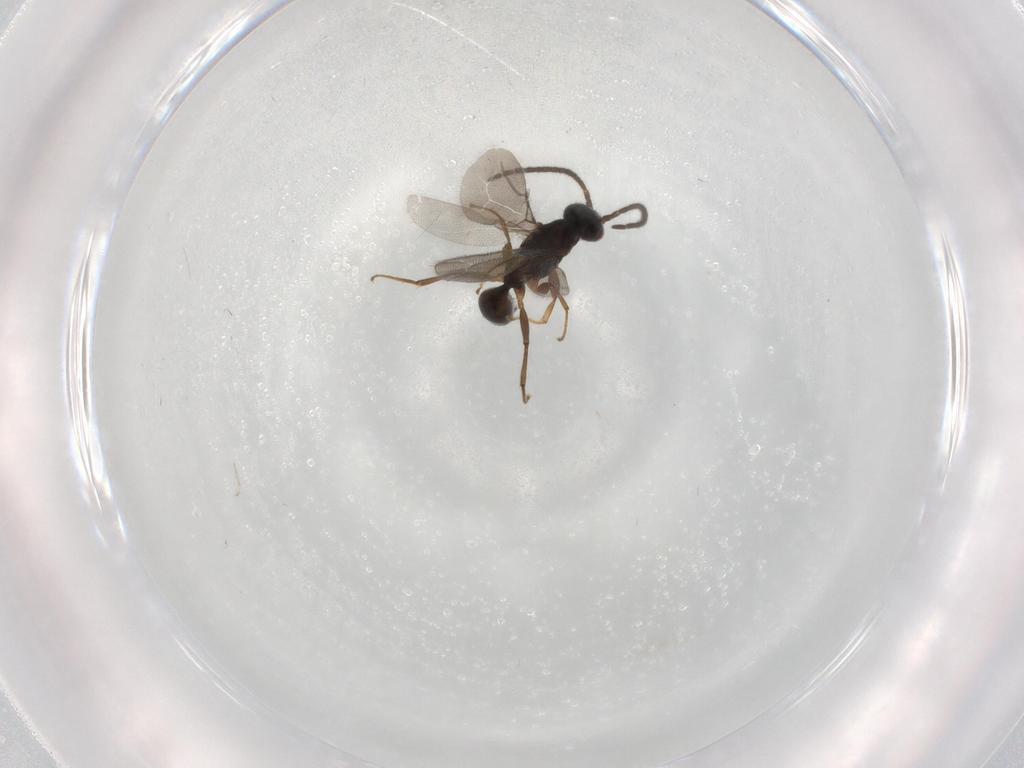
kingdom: Animalia
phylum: Arthropoda
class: Insecta
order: Hymenoptera
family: Bethylidae
